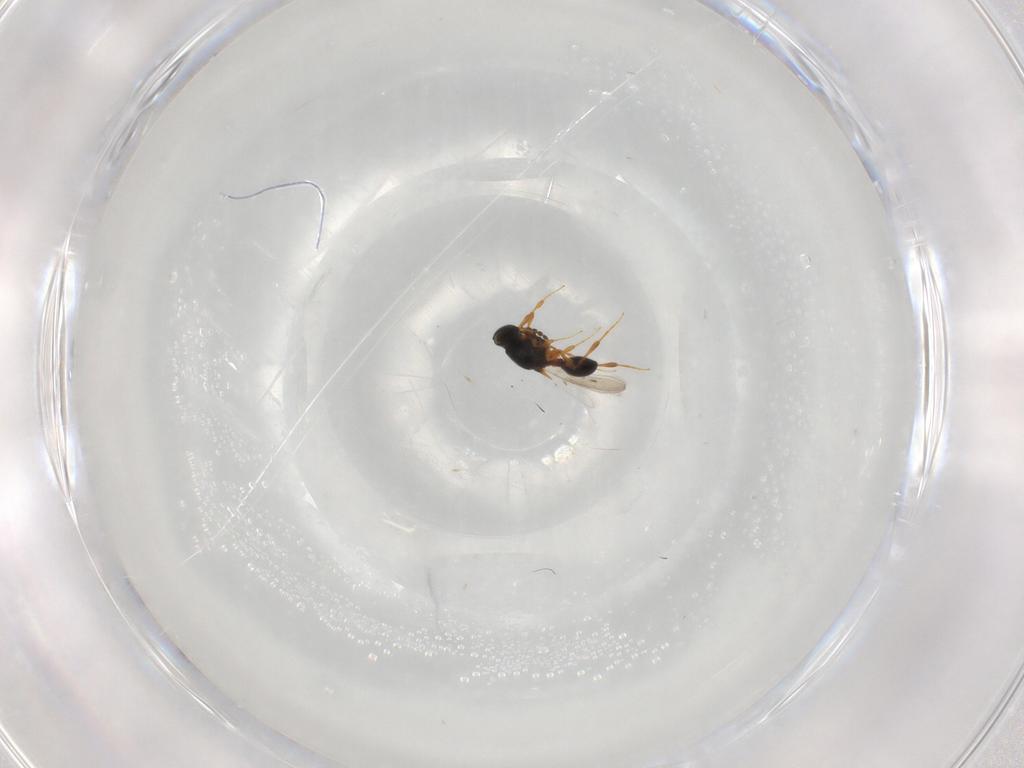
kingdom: Animalia
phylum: Arthropoda
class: Insecta
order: Hymenoptera
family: Platygastridae
